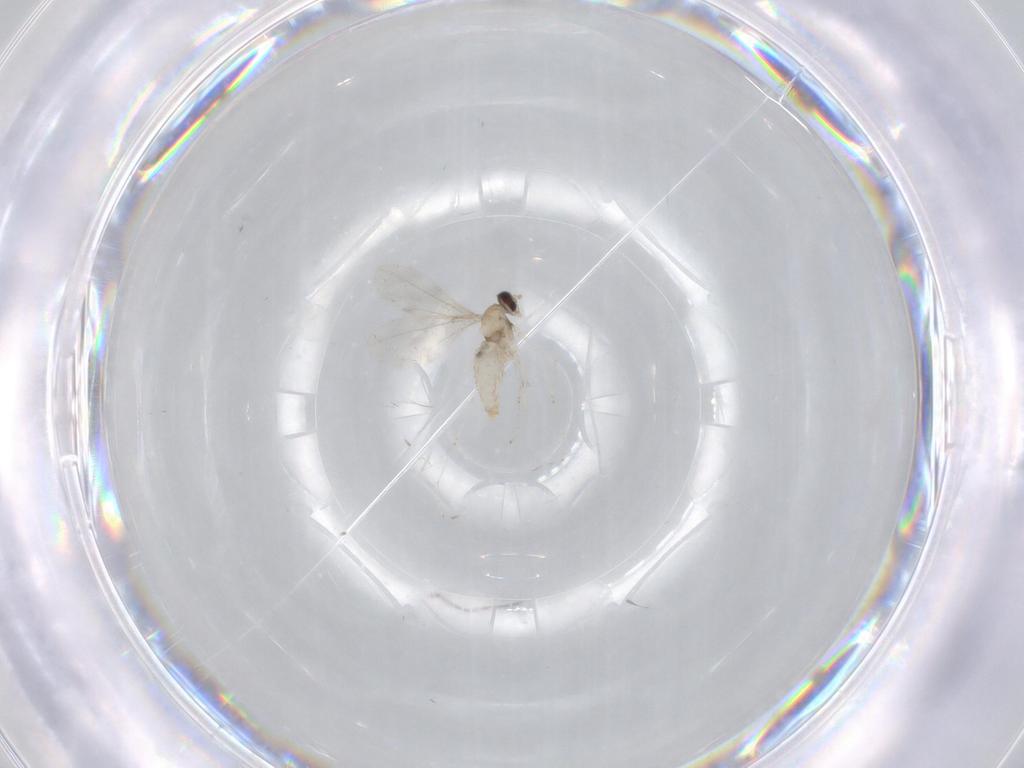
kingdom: Animalia
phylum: Arthropoda
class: Insecta
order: Diptera
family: Cecidomyiidae
